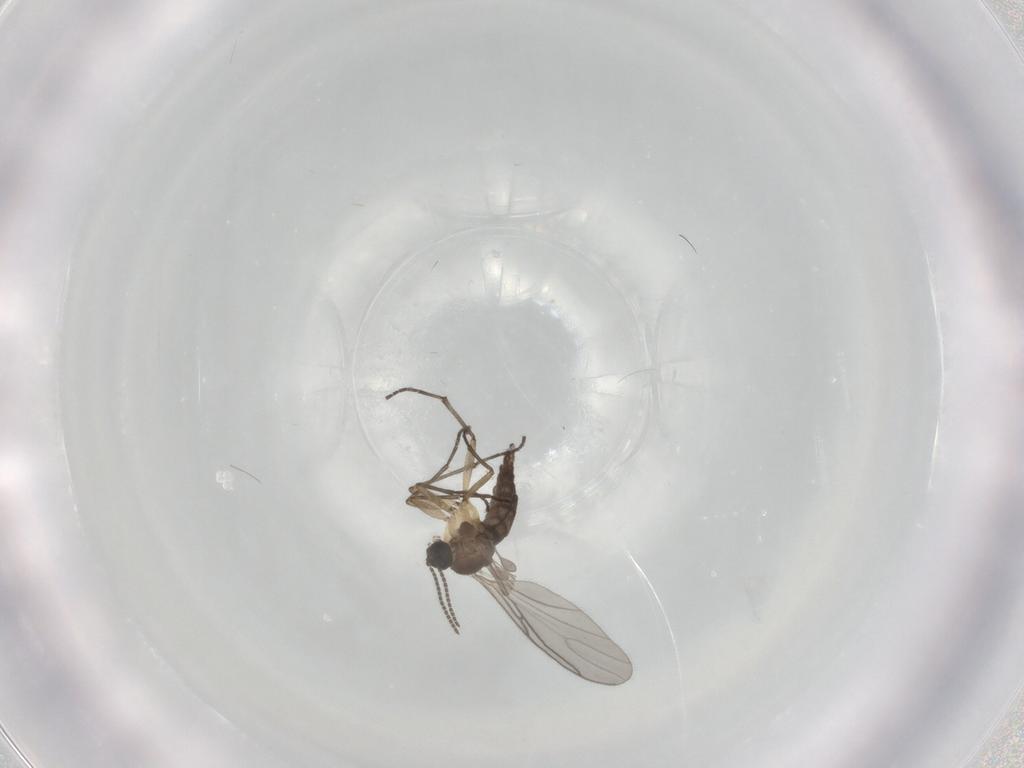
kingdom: Animalia
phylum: Arthropoda
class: Insecta
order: Diptera
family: Sciaridae
